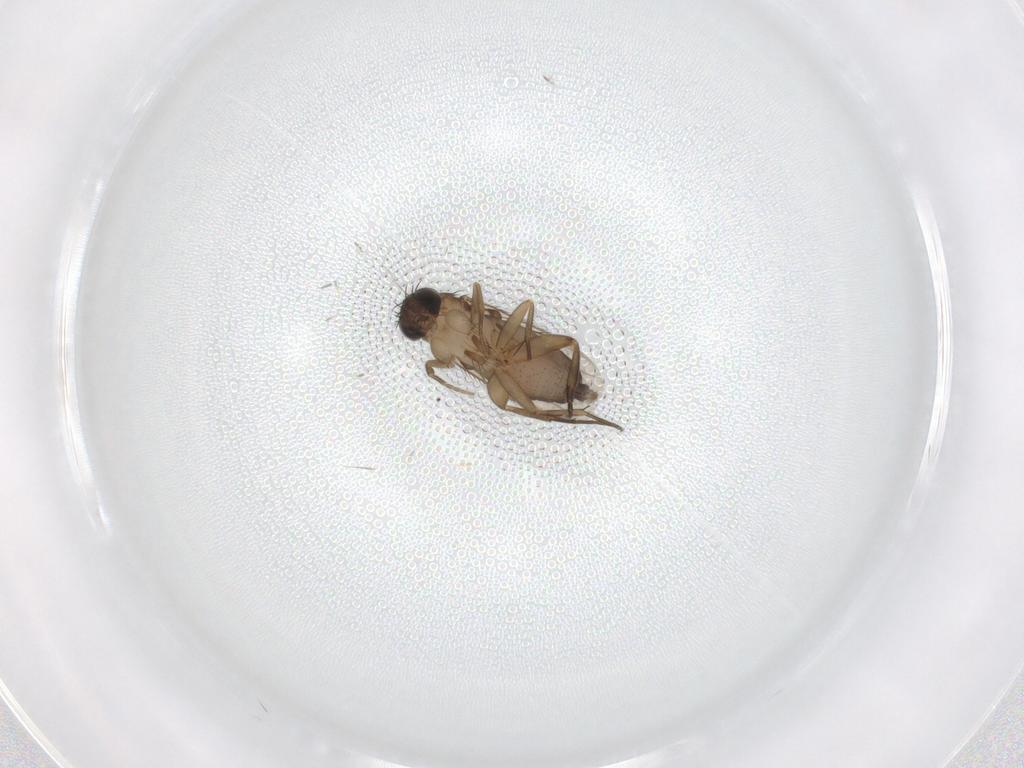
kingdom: Animalia
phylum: Arthropoda
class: Insecta
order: Diptera
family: Phoridae
